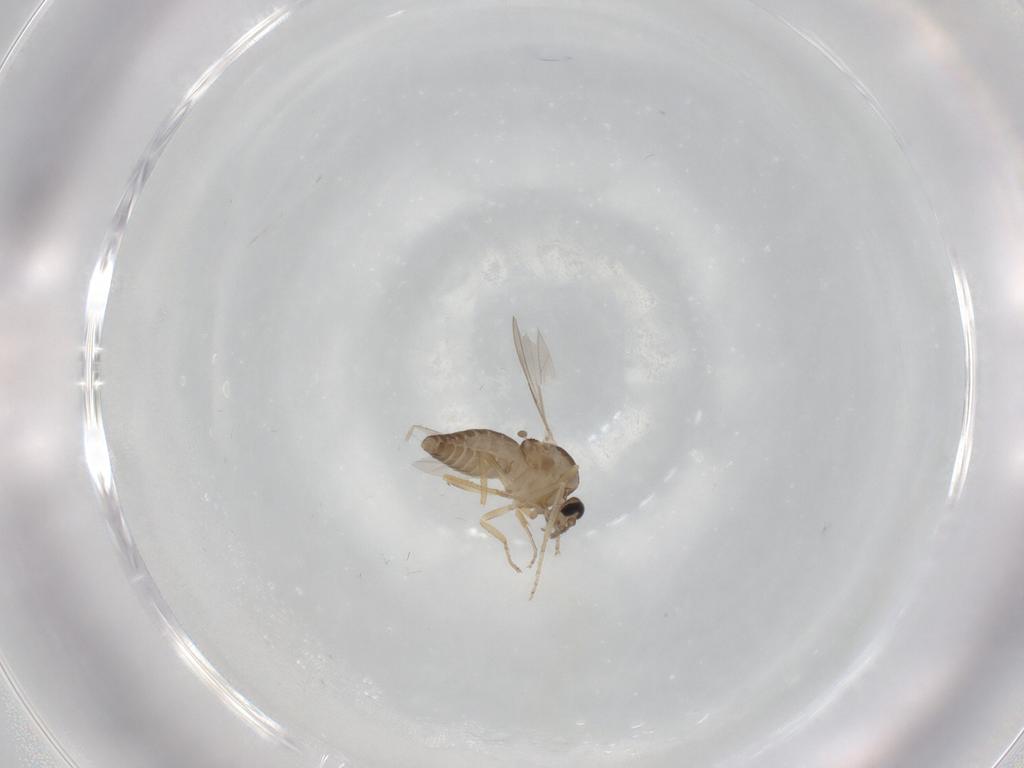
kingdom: Animalia
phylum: Arthropoda
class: Insecta
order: Diptera
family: Ceratopogonidae
